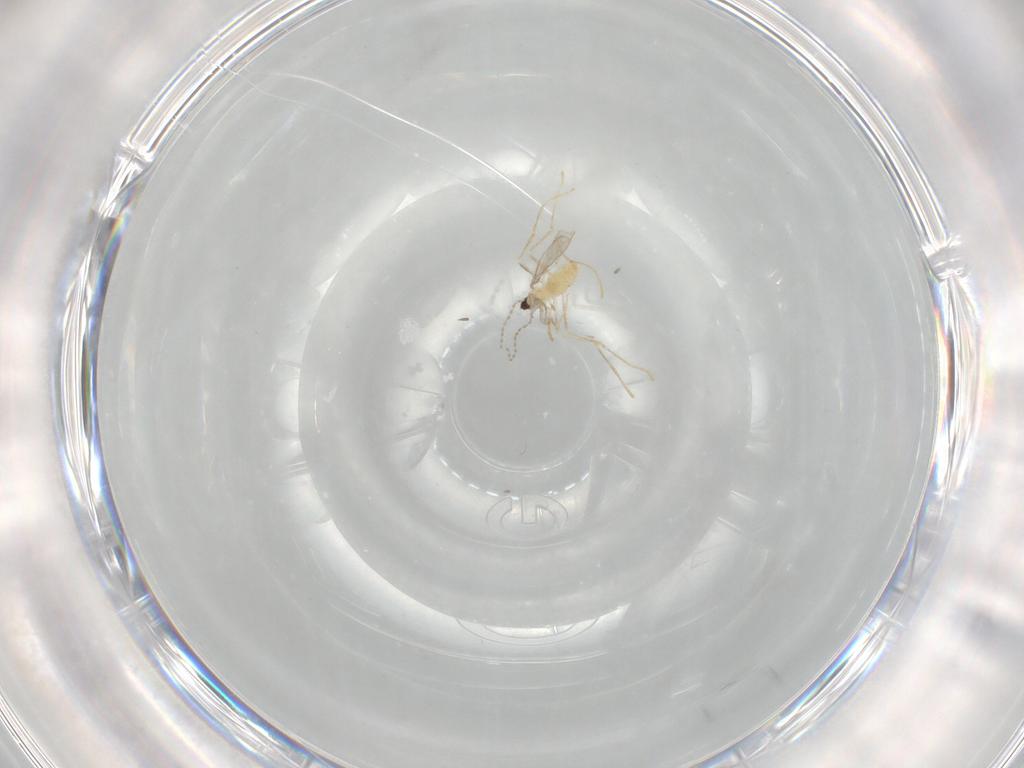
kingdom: Animalia
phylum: Arthropoda
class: Insecta
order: Diptera
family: Cecidomyiidae
